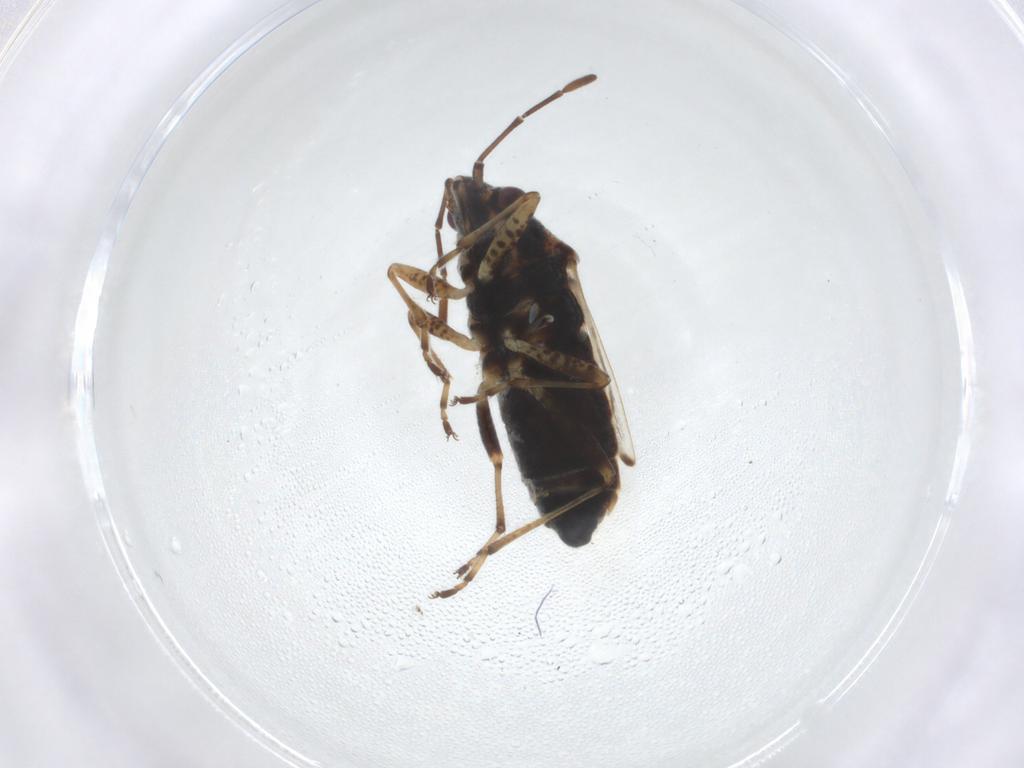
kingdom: Animalia
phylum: Arthropoda
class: Insecta
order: Hemiptera
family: Lygaeidae
